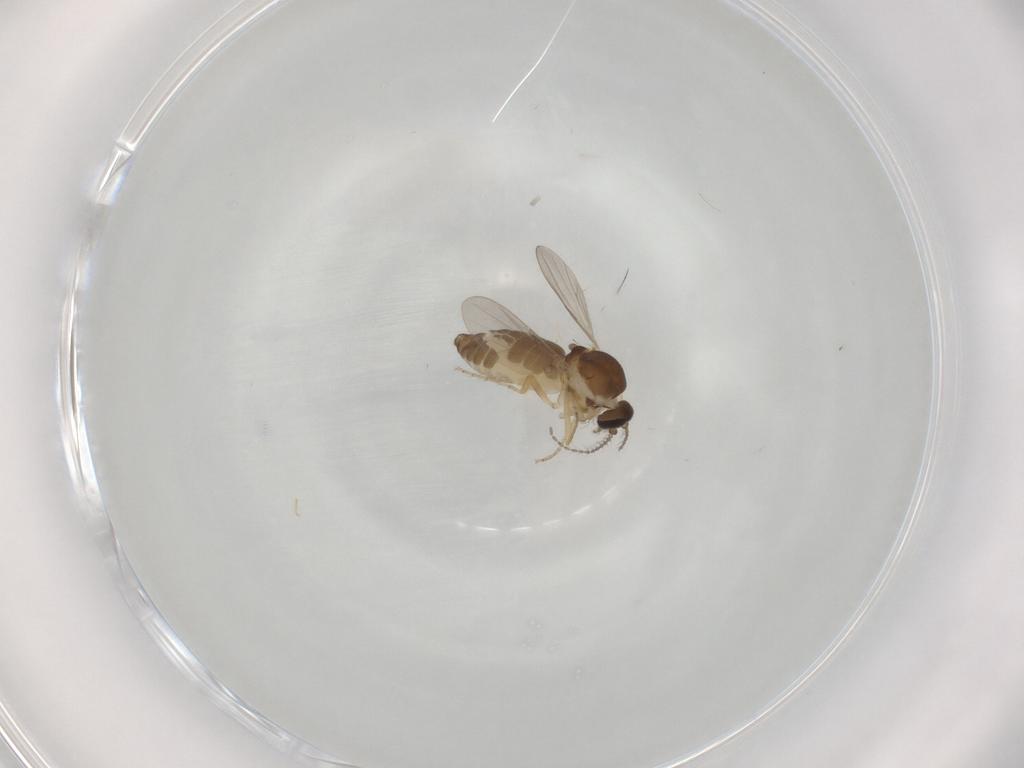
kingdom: Animalia
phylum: Arthropoda
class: Insecta
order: Diptera
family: Ceratopogonidae
